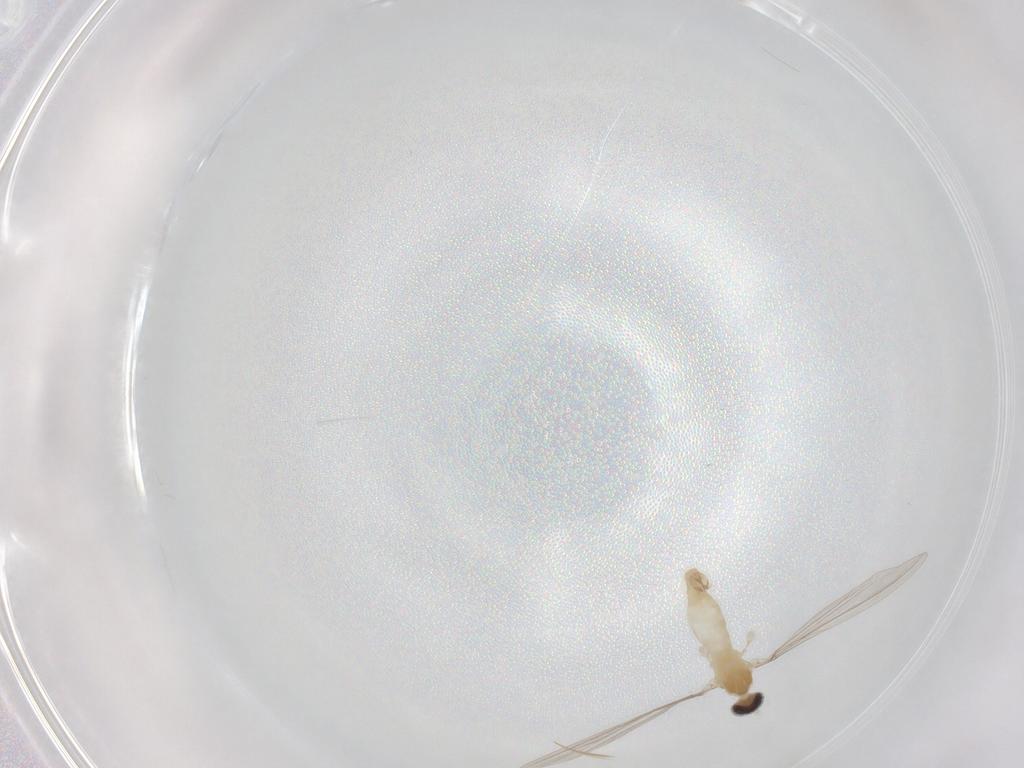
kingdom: Animalia
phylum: Arthropoda
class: Insecta
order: Diptera
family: Cecidomyiidae
